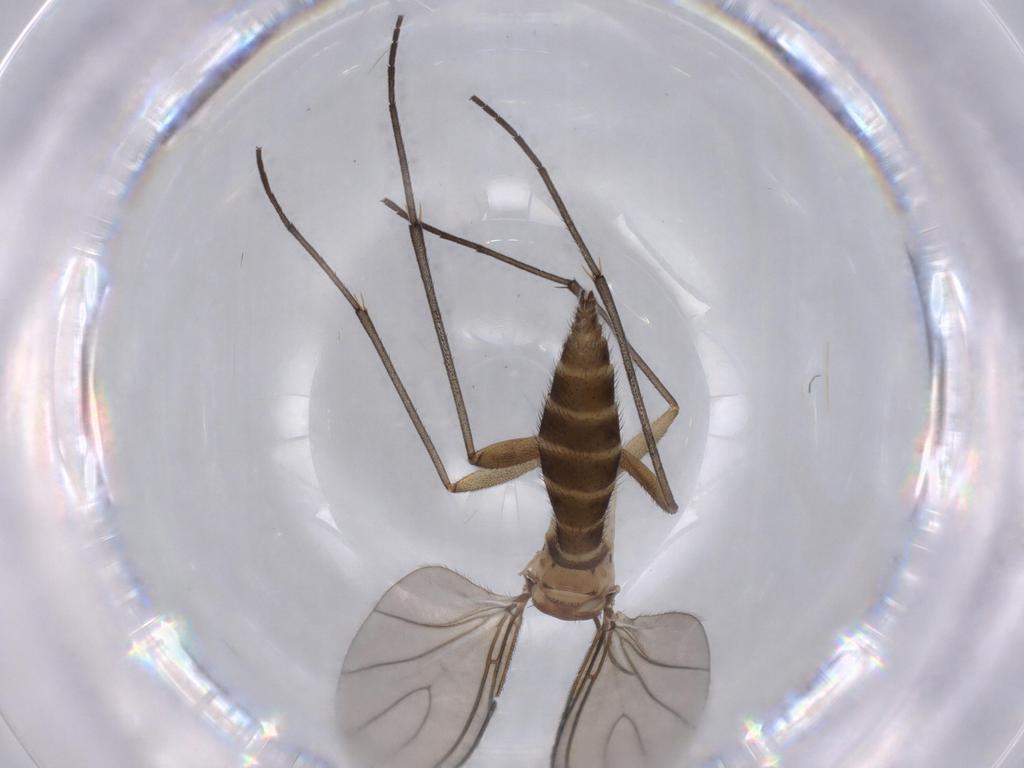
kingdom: Animalia
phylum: Arthropoda
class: Insecta
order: Diptera
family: Sciaridae
